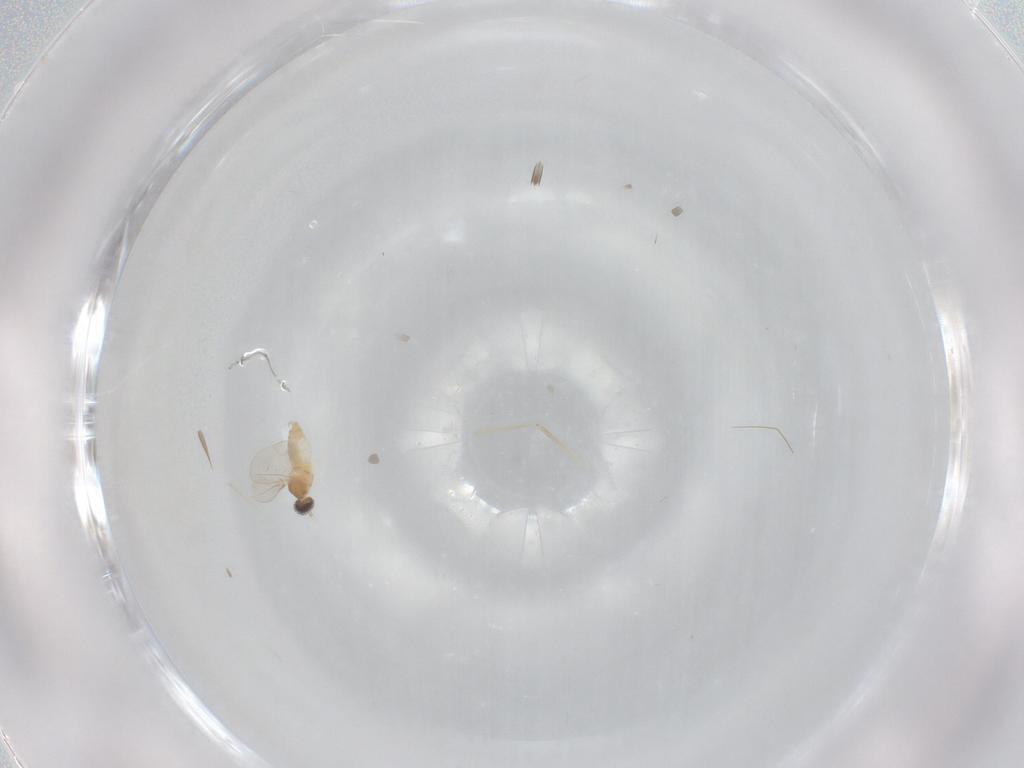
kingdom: Animalia
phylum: Arthropoda
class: Insecta
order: Diptera
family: Cecidomyiidae
